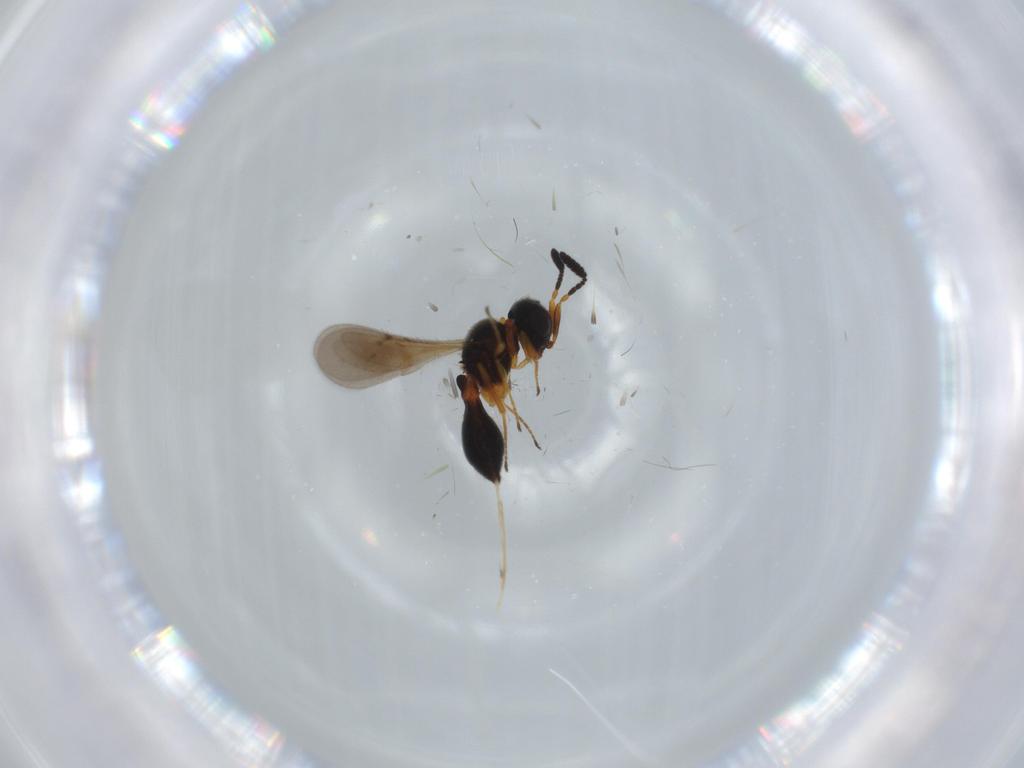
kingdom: Animalia
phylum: Arthropoda
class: Insecta
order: Hymenoptera
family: Scelionidae
